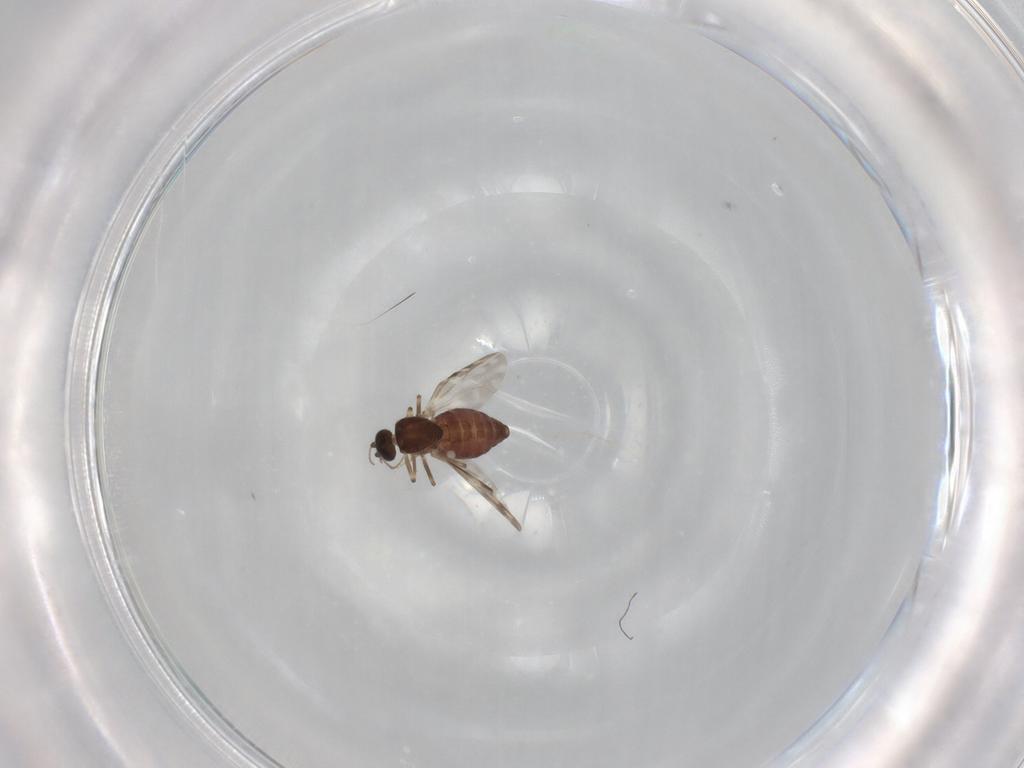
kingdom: Animalia
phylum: Arthropoda
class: Insecta
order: Diptera
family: Ceratopogonidae
